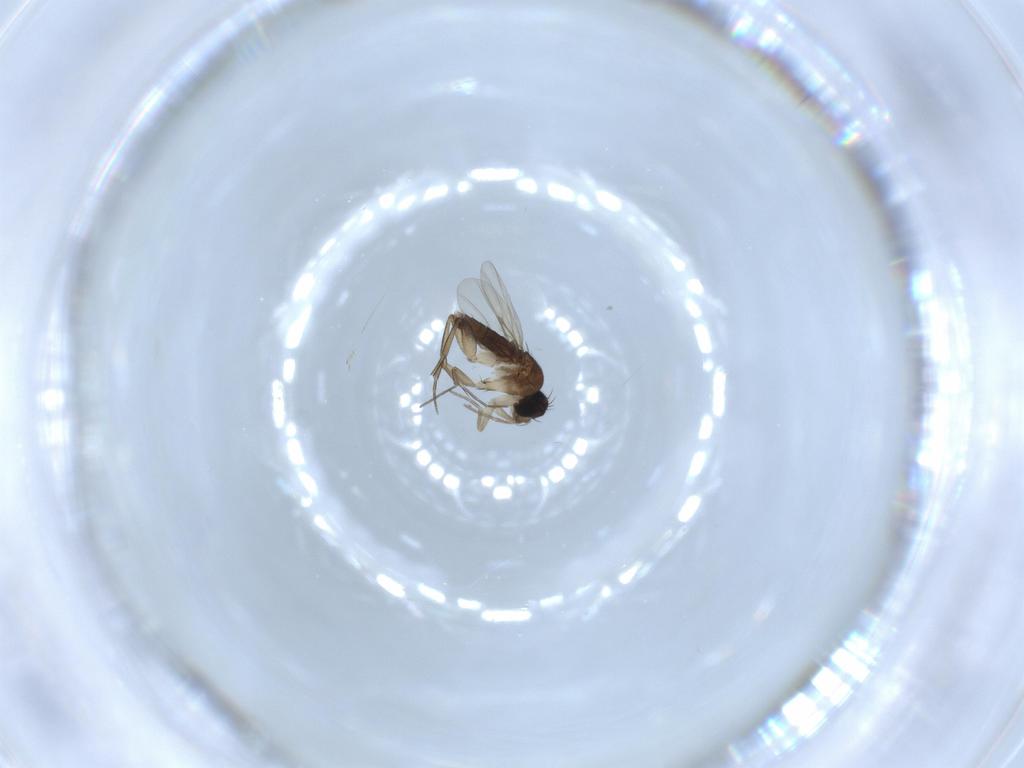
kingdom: Animalia
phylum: Arthropoda
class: Insecta
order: Diptera
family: Phoridae
